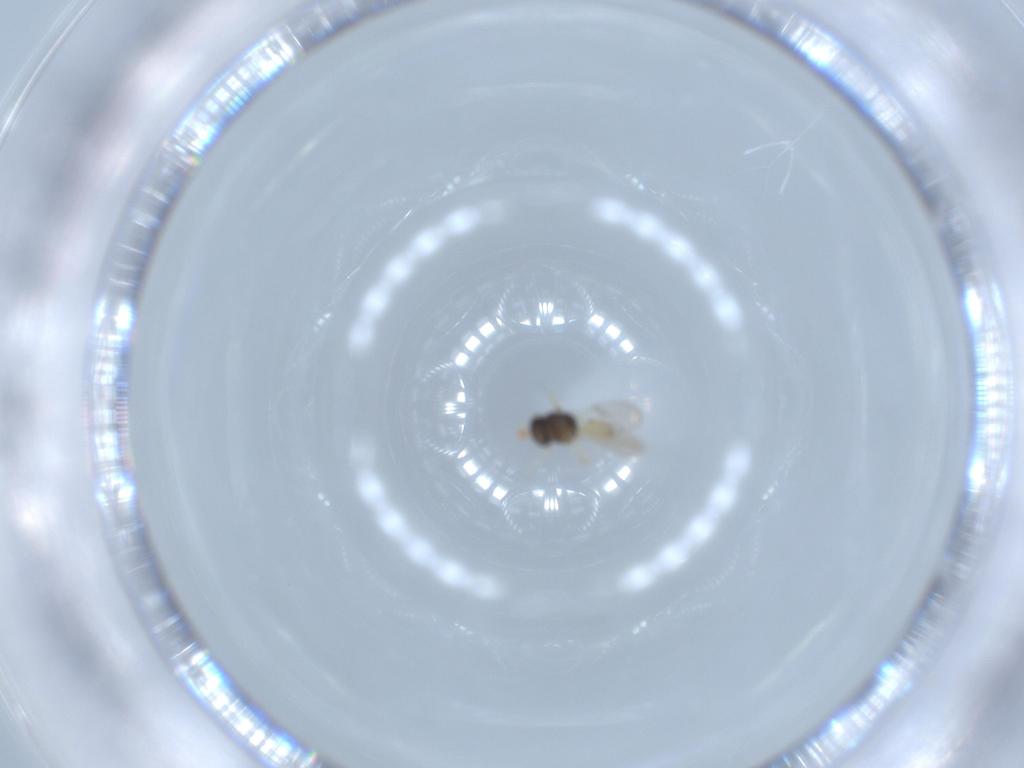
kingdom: Animalia
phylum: Arthropoda
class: Insecta
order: Hymenoptera
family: Scelionidae
